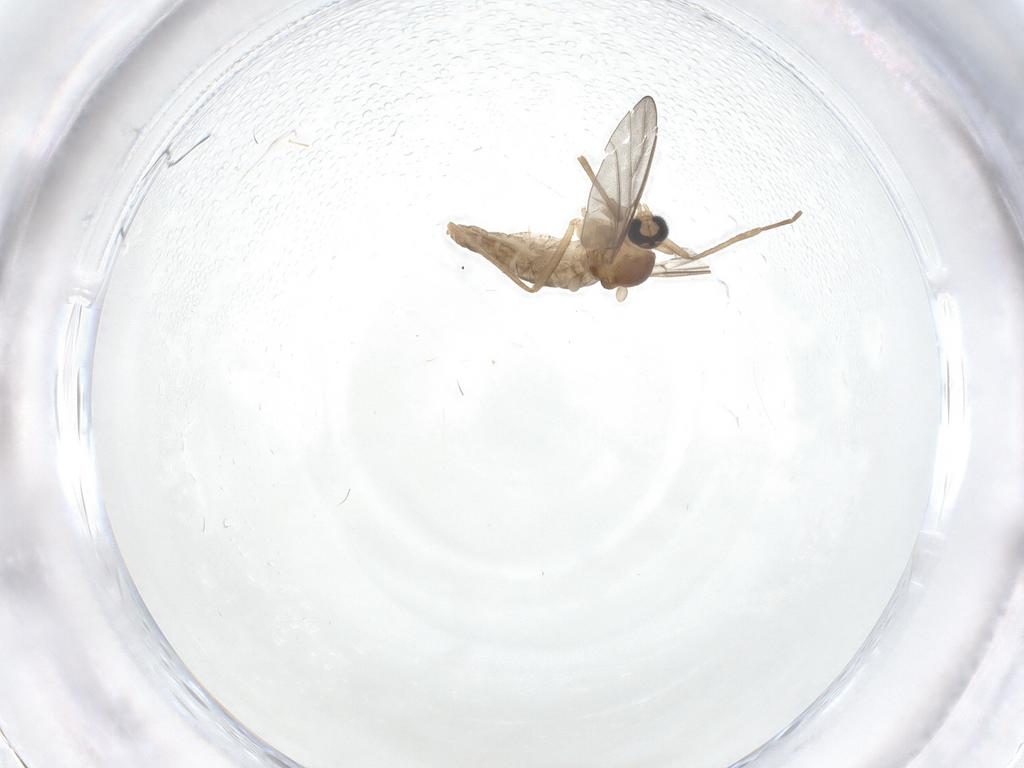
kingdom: Animalia
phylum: Arthropoda
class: Insecta
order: Diptera
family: Cecidomyiidae
